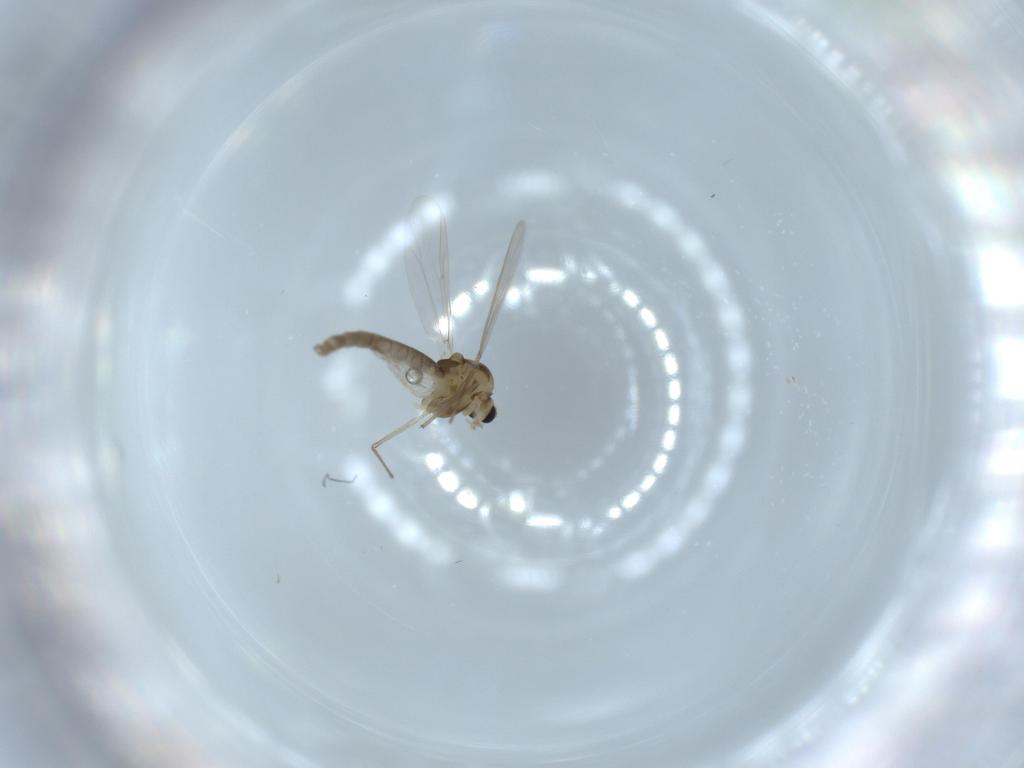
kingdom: Animalia
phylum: Arthropoda
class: Insecta
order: Diptera
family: Chironomidae
